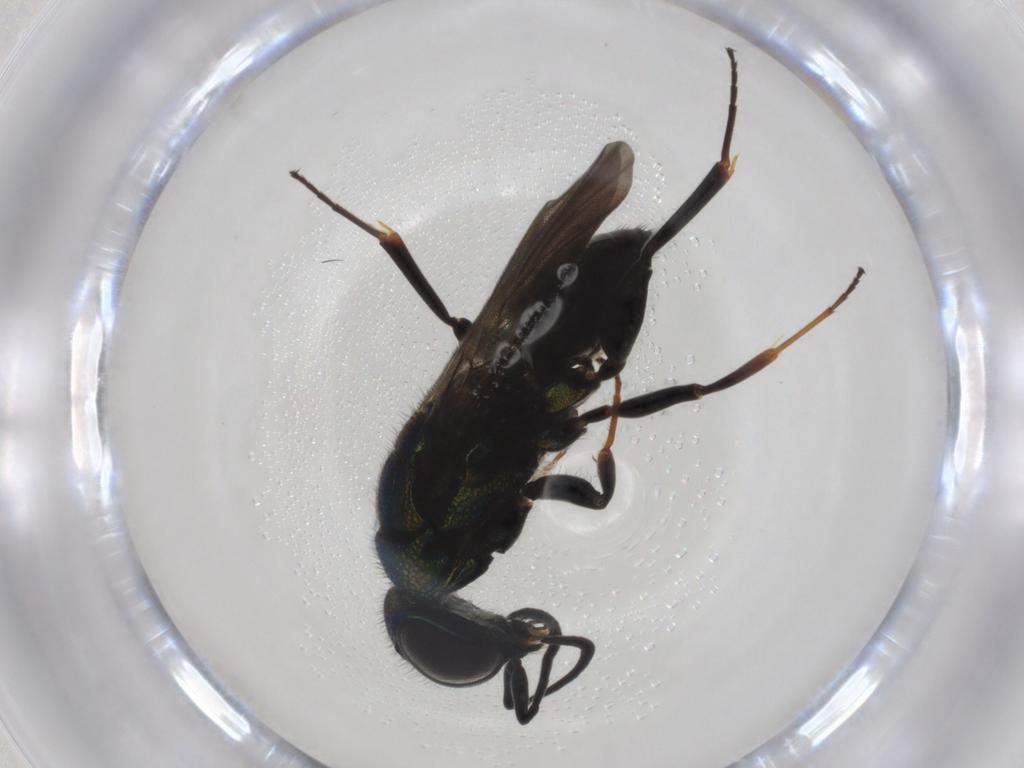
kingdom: Animalia
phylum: Arthropoda
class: Insecta
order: Hymenoptera
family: Chrysididae
